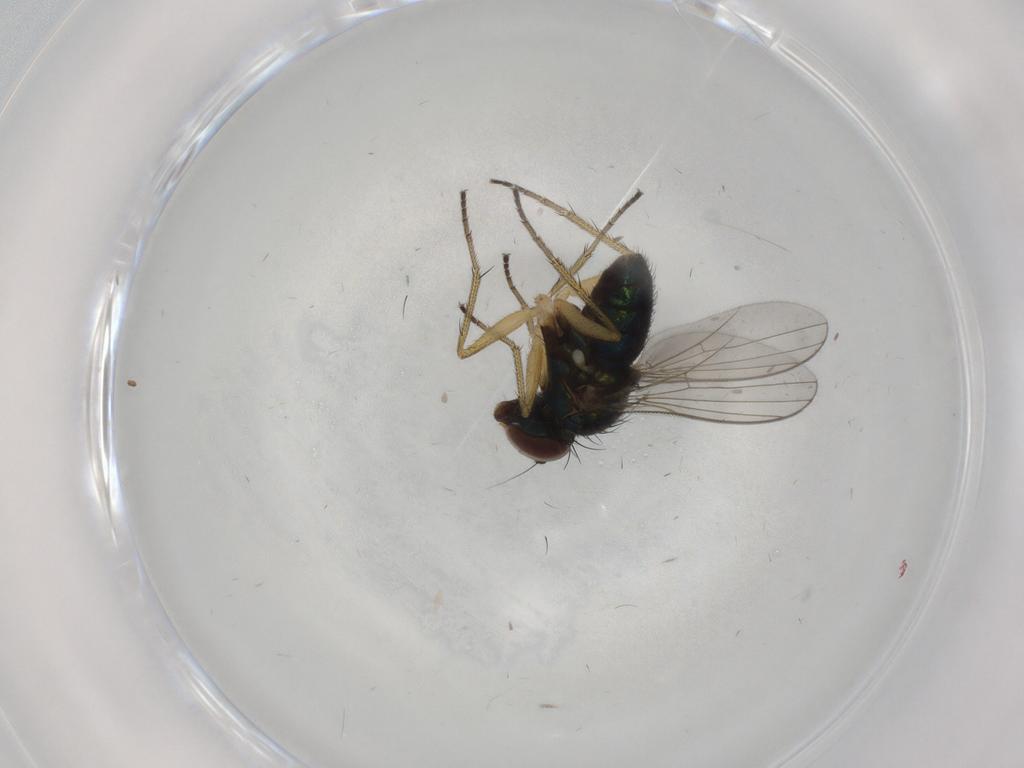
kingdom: Animalia
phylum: Arthropoda
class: Insecta
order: Diptera
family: Dolichopodidae
